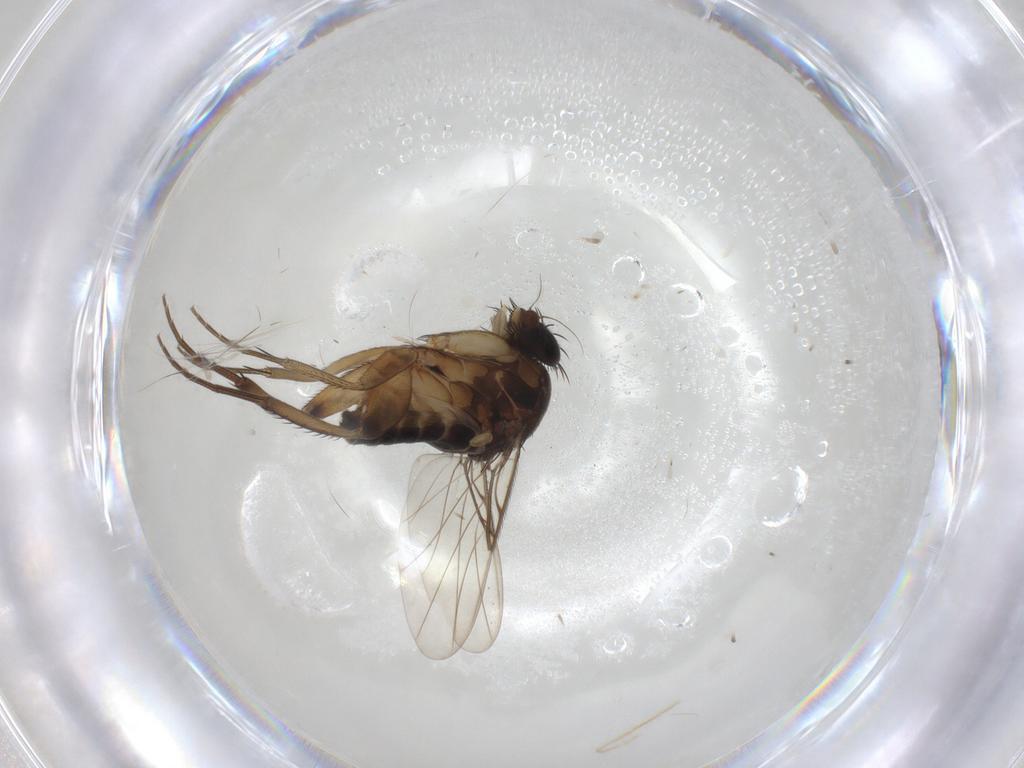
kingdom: Animalia
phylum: Arthropoda
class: Insecta
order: Diptera
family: Phoridae
